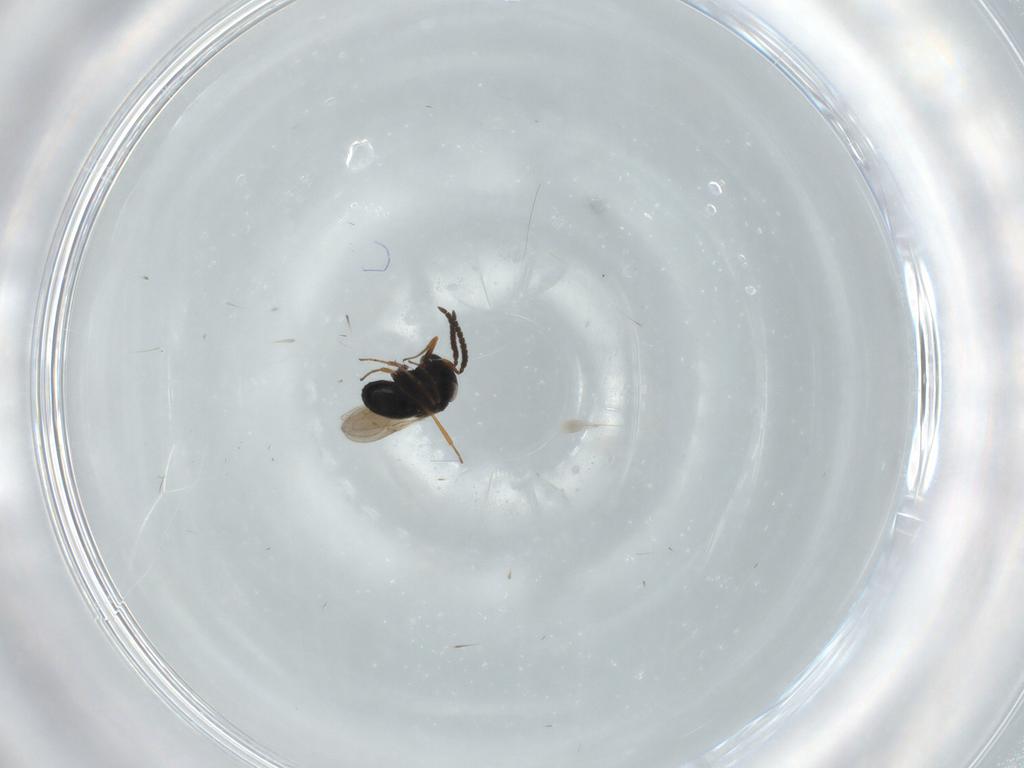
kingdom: Animalia
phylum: Arthropoda
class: Insecta
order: Hymenoptera
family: Scelionidae
